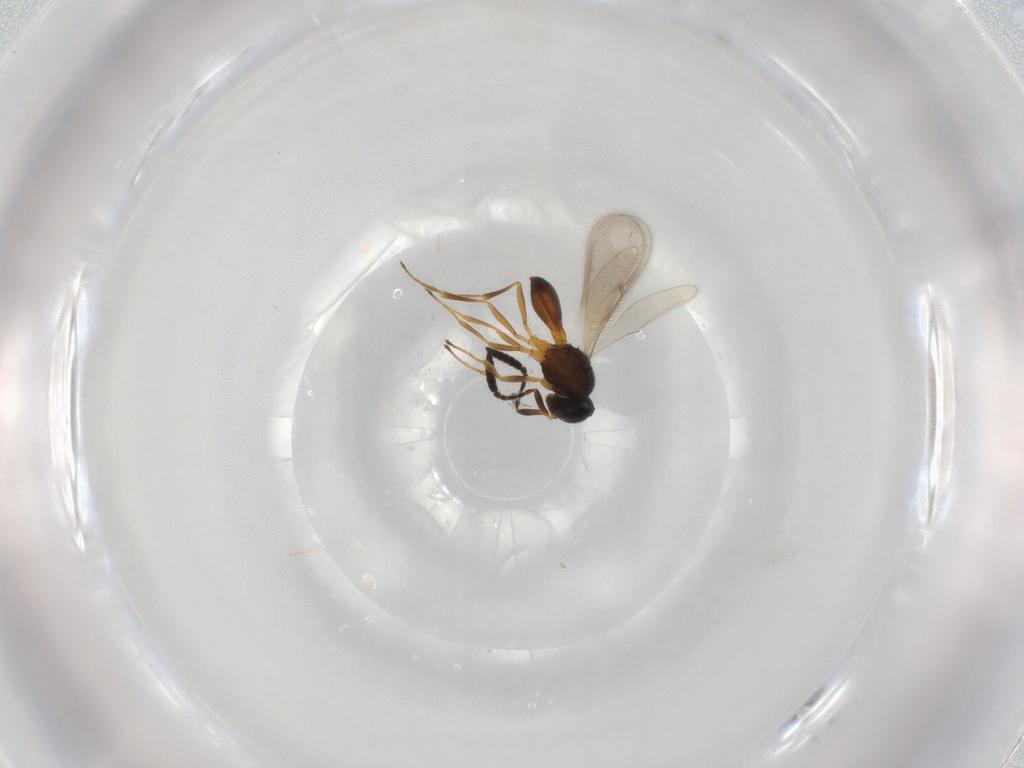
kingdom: Animalia
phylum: Arthropoda
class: Insecta
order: Hymenoptera
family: Scelionidae
